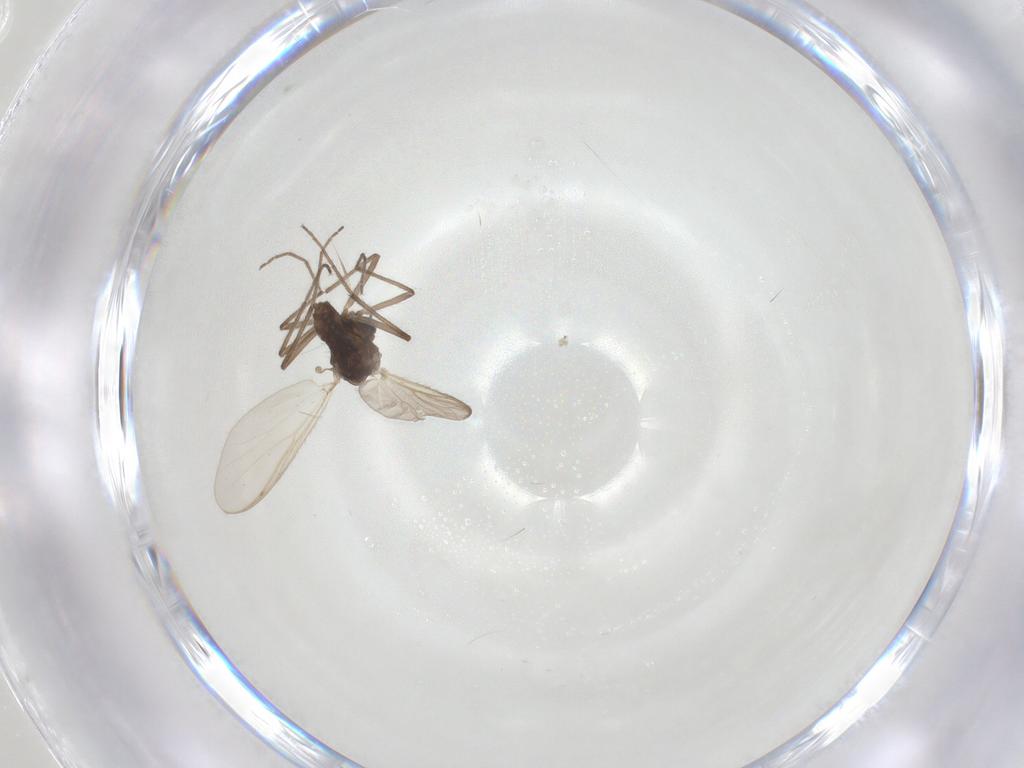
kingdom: Animalia
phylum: Arthropoda
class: Insecta
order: Diptera
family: Chironomidae
